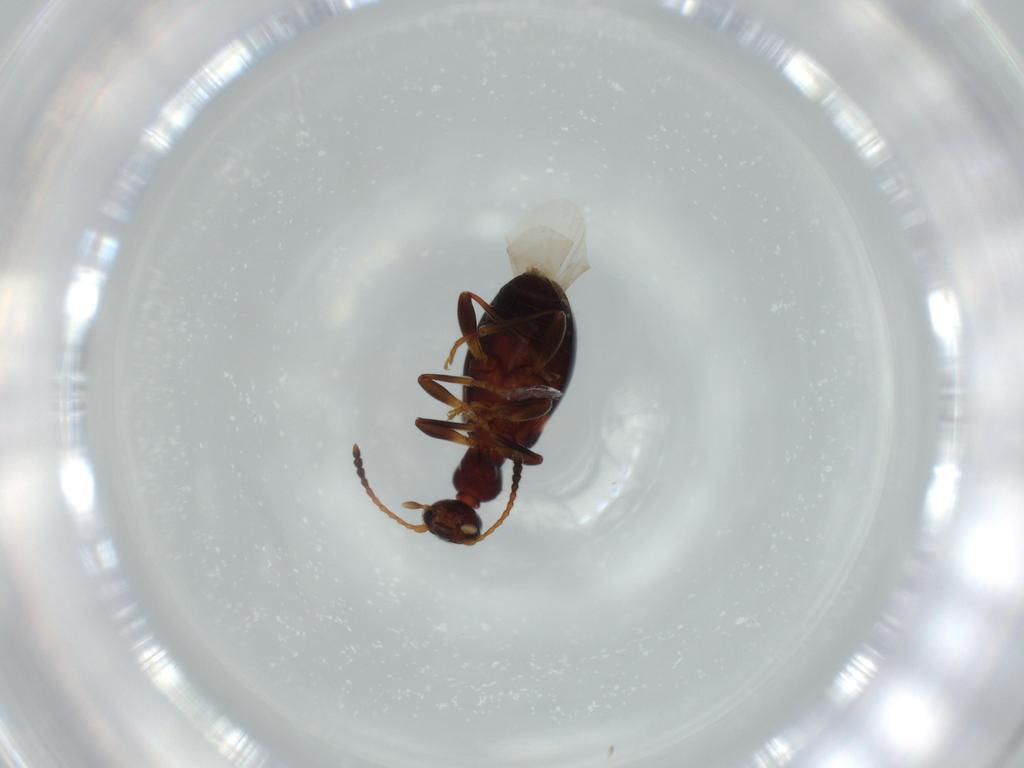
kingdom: Animalia
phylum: Arthropoda
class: Insecta
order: Coleoptera
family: Anthicidae
